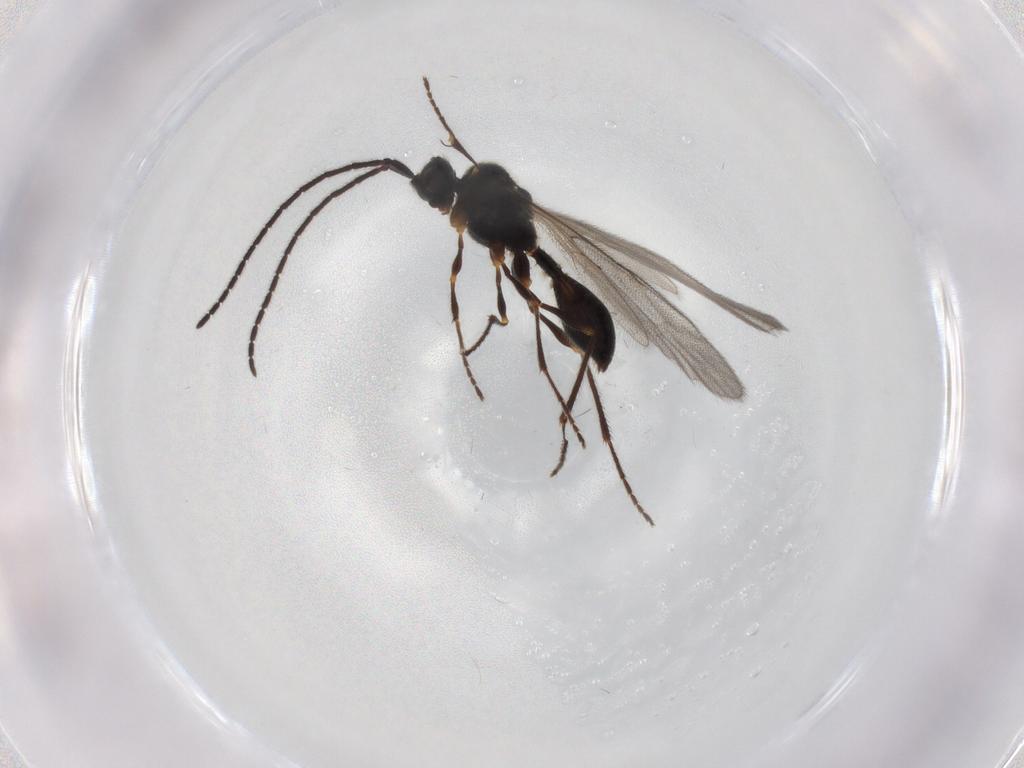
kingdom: Animalia
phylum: Arthropoda
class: Insecta
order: Hymenoptera
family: Diapriidae
